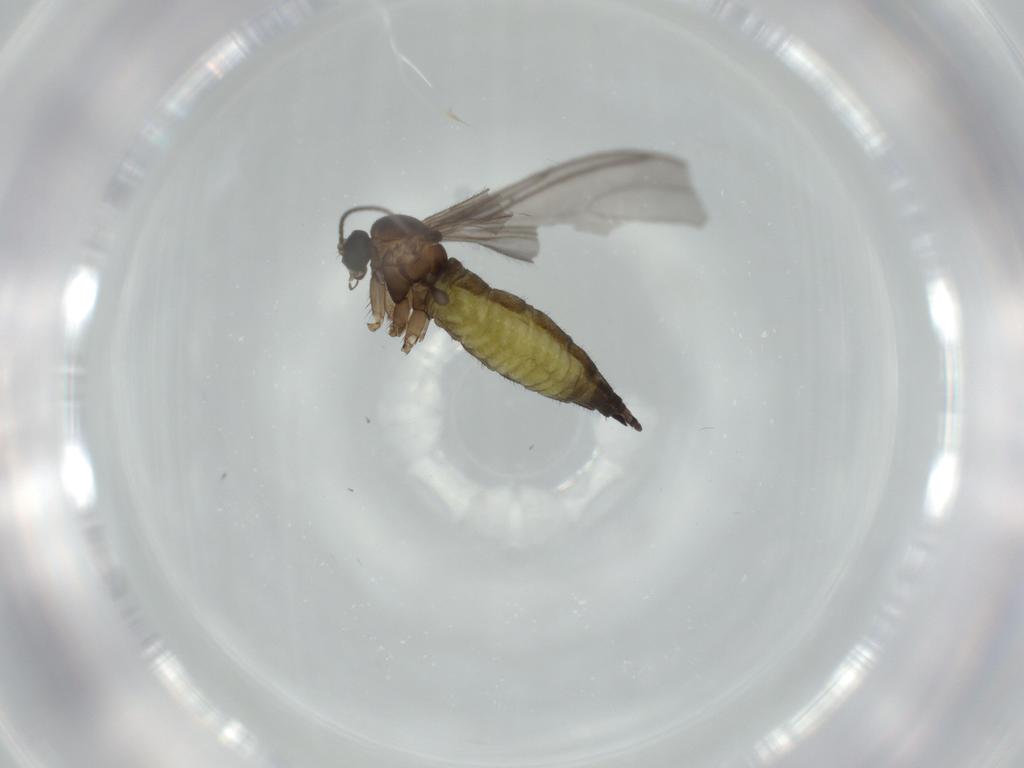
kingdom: Animalia
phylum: Arthropoda
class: Insecta
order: Diptera
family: Sciaridae
